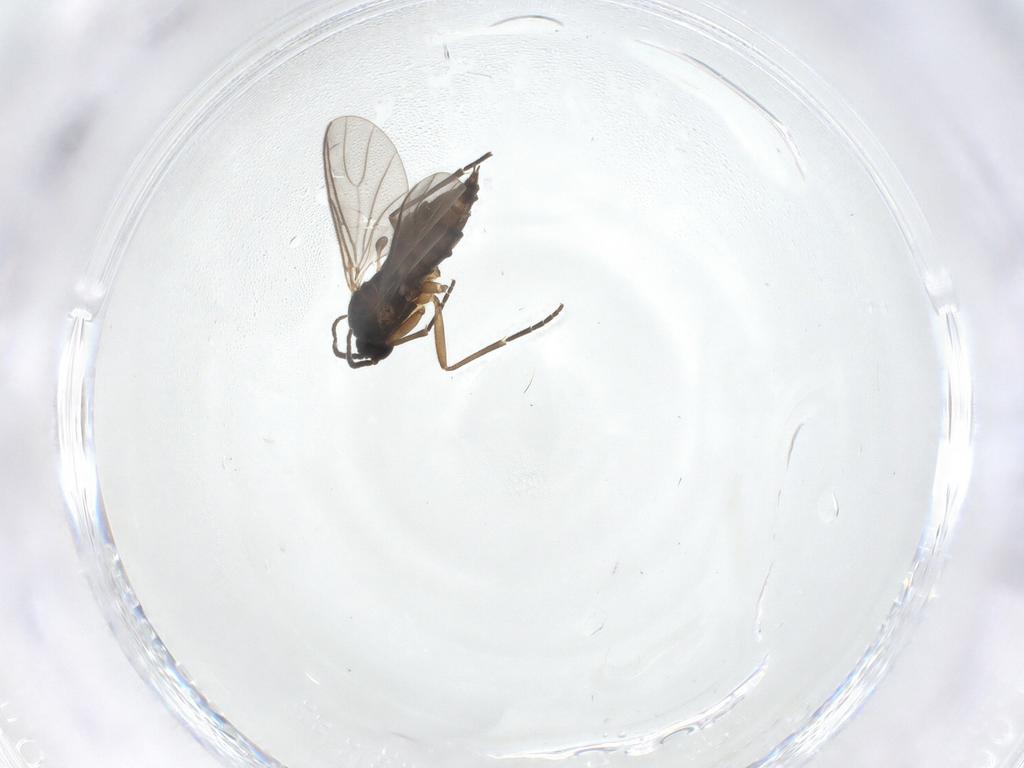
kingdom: Animalia
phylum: Arthropoda
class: Insecta
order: Diptera
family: Sciaridae
